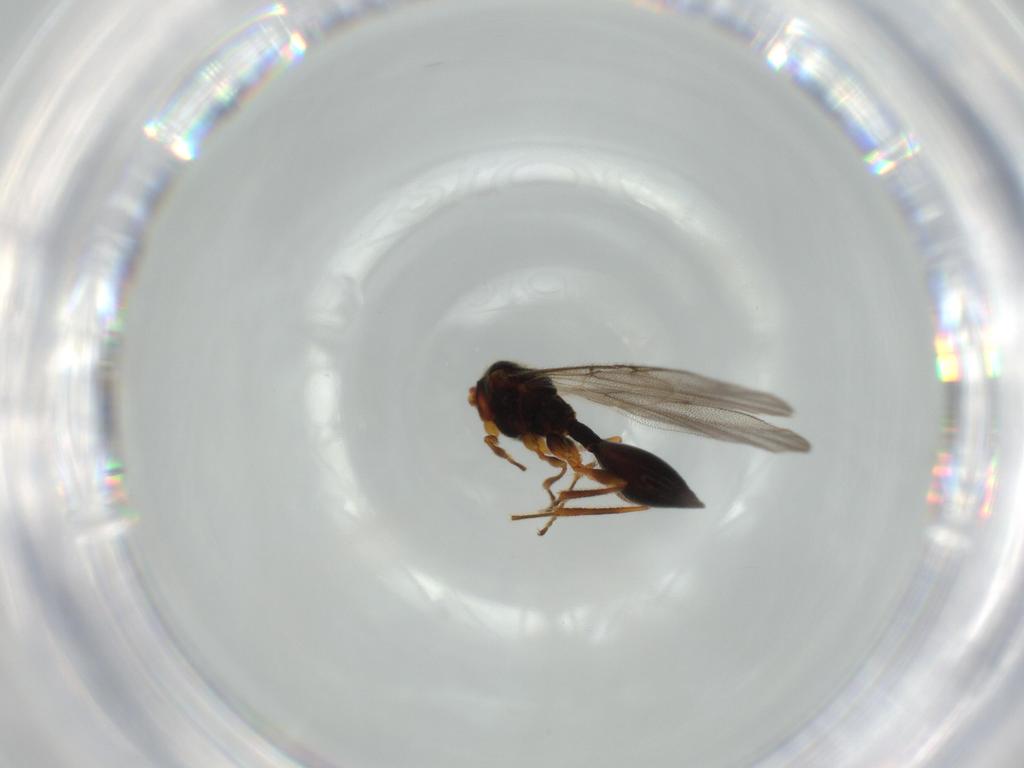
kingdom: Animalia
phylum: Arthropoda
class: Insecta
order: Hymenoptera
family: Diapriidae
